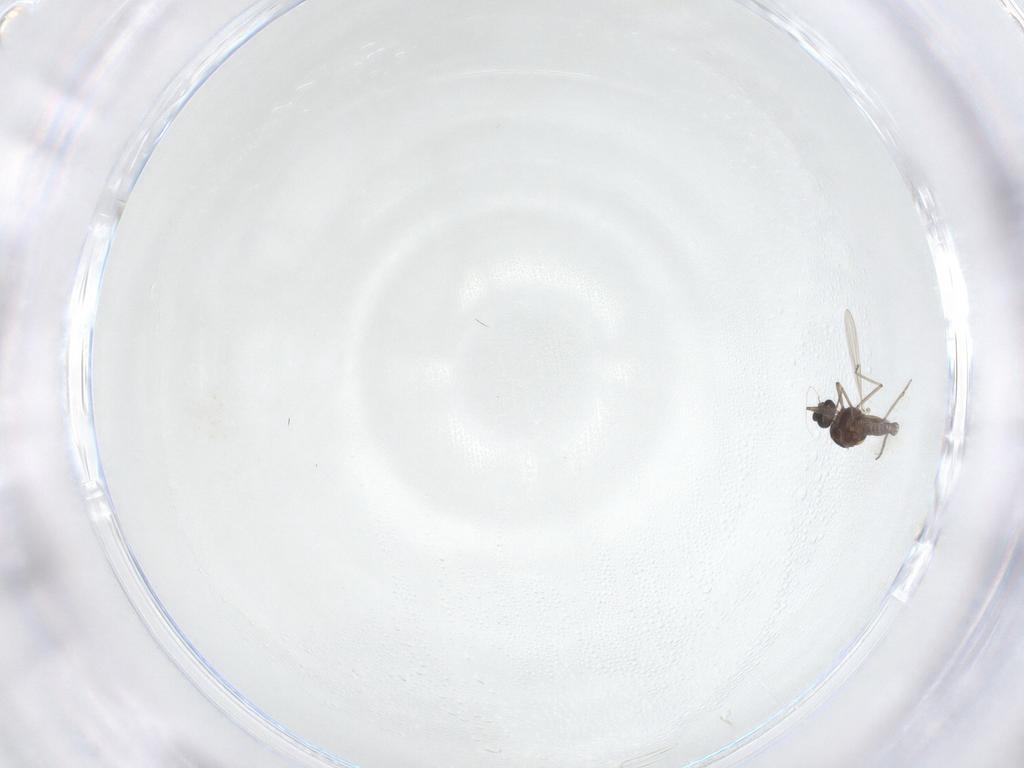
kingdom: Animalia
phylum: Arthropoda
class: Insecta
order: Diptera
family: Ceratopogonidae
